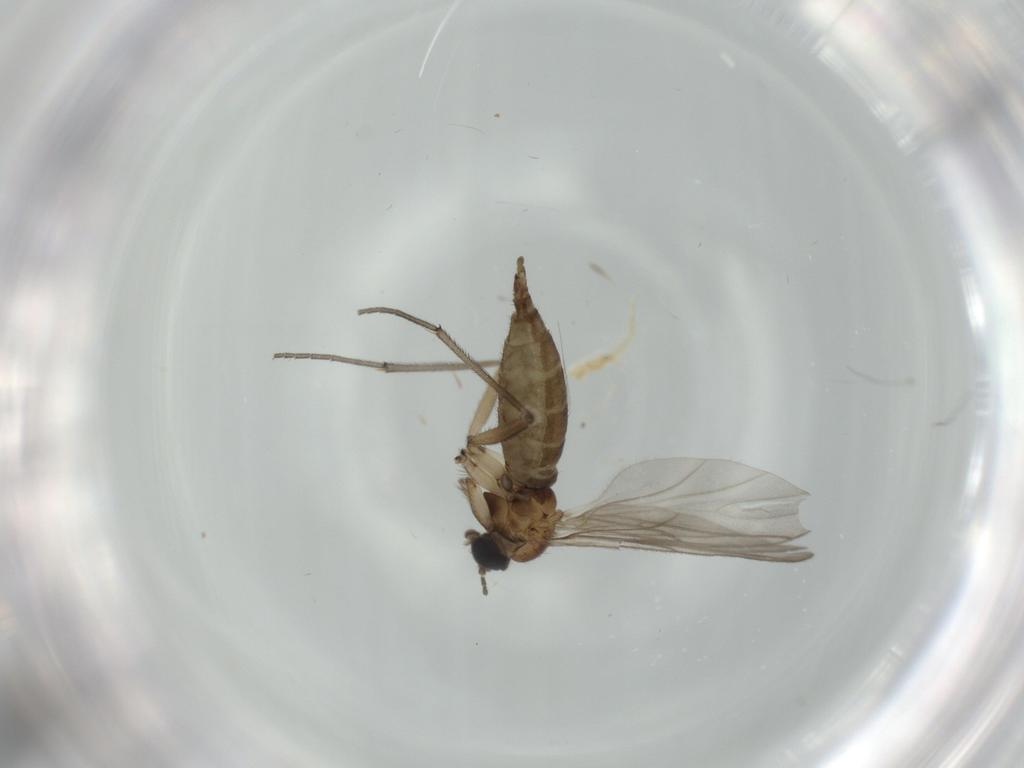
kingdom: Animalia
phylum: Arthropoda
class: Insecta
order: Diptera
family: Sciaridae
